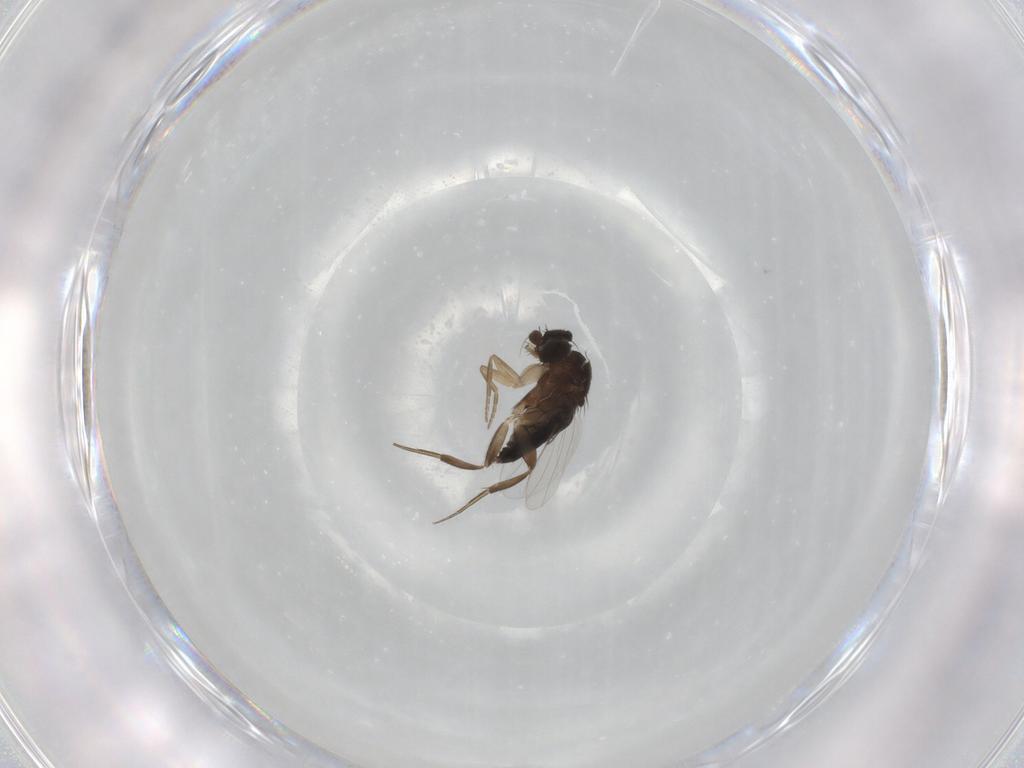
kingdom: Animalia
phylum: Arthropoda
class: Insecta
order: Diptera
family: Phoridae
